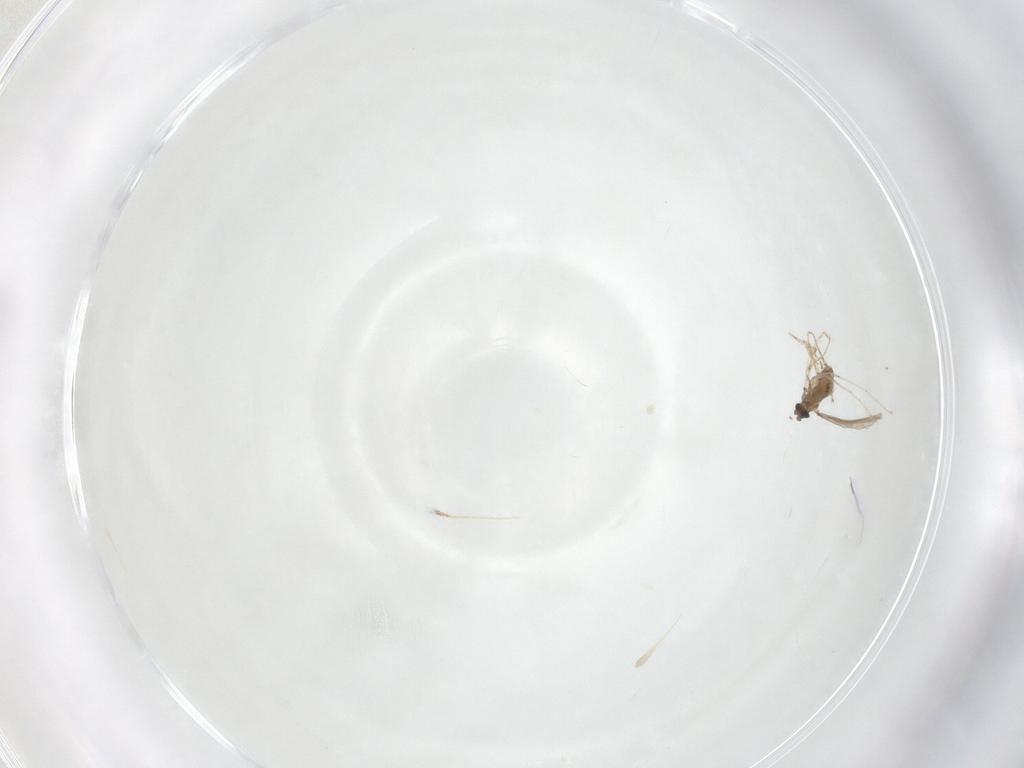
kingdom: Animalia
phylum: Arthropoda
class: Insecta
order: Diptera
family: Cecidomyiidae
